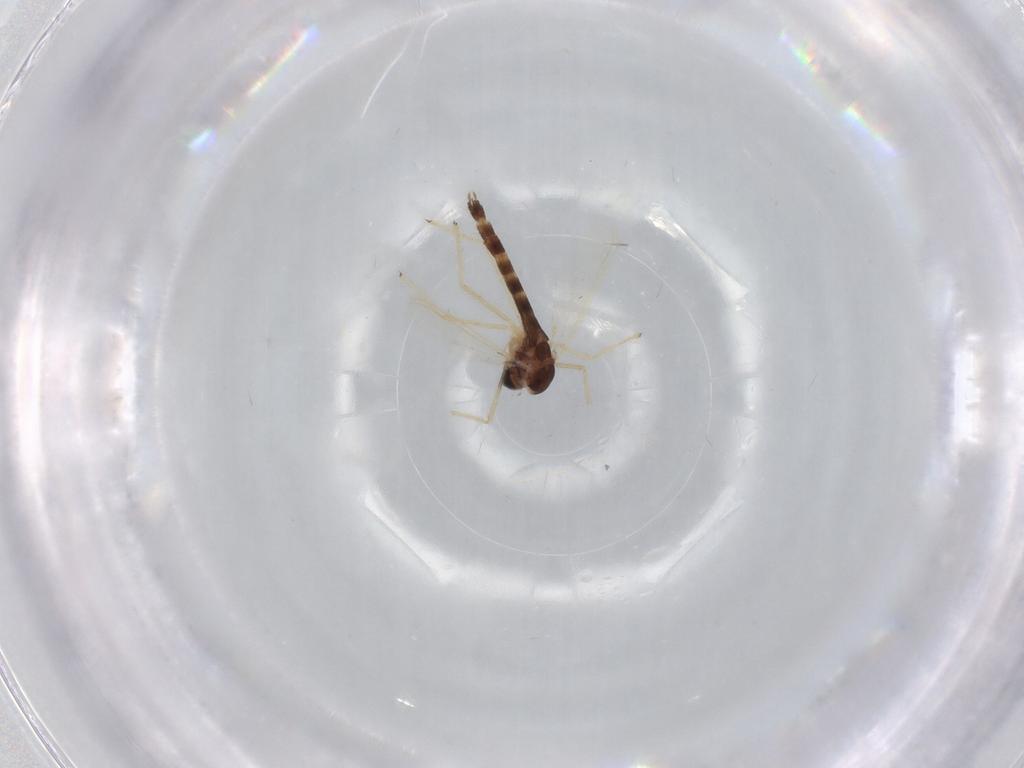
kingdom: Animalia
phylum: Arthropoda
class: Insecta
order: Diptera
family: Chironomidae
